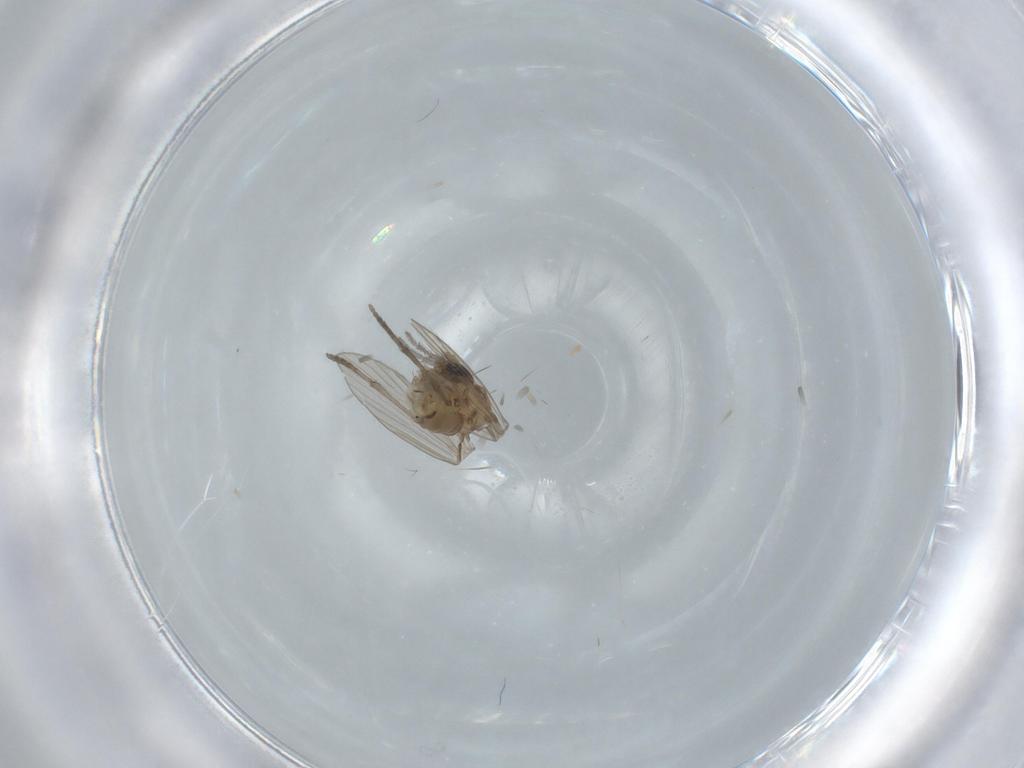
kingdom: Animalia
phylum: Arthropoda
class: Insecta
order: Diptera
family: Psychodidae
